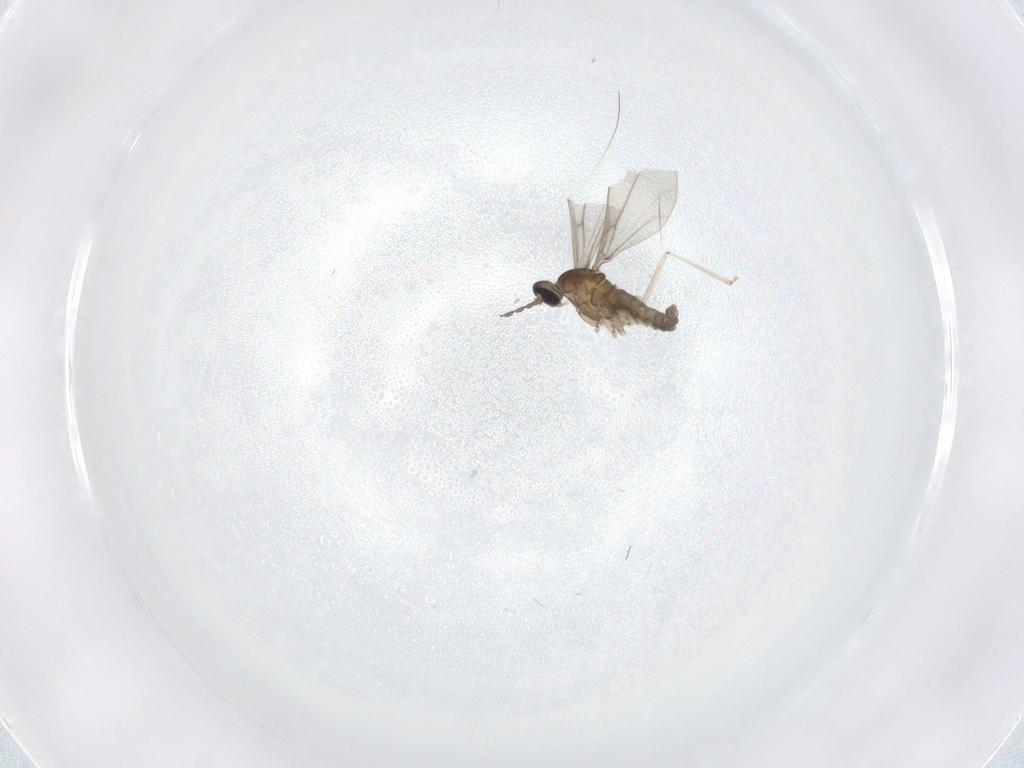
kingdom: Animalia
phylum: Arthropoda
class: Insecta
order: Diptera
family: Cecidomyiidae
